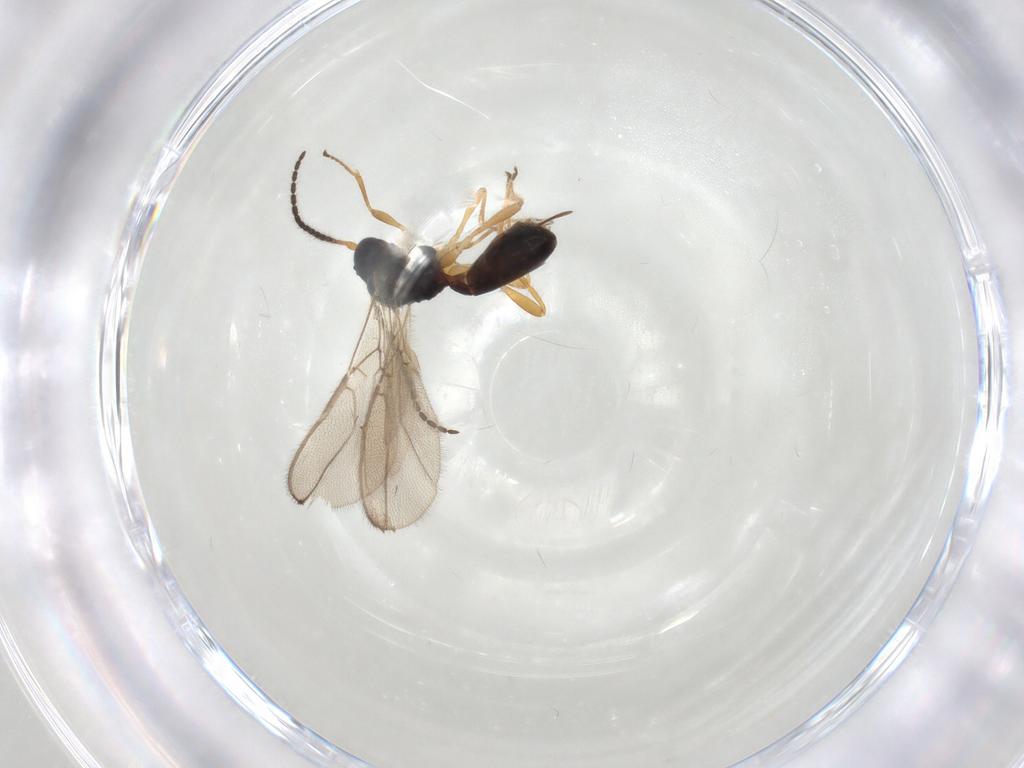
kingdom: Animalia
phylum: Arthropoda
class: Insecta
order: Hymenoptera
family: Braconidae
